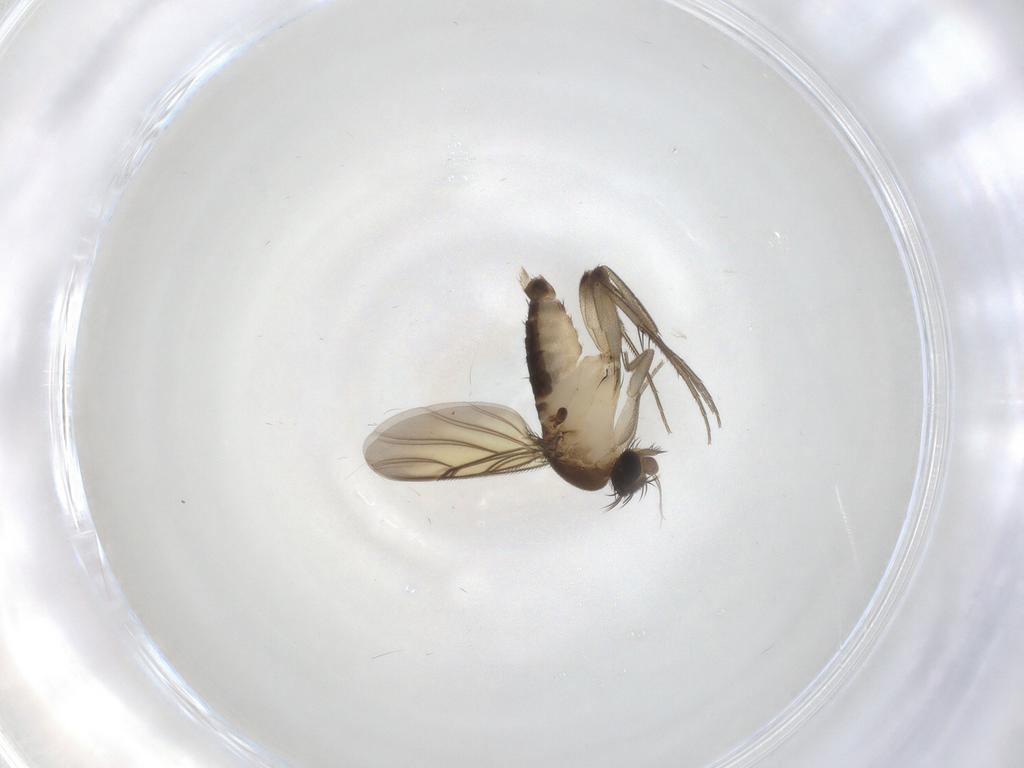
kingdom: Animalia
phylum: Arthropoda
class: Insecta
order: Diptera
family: Phoridae
